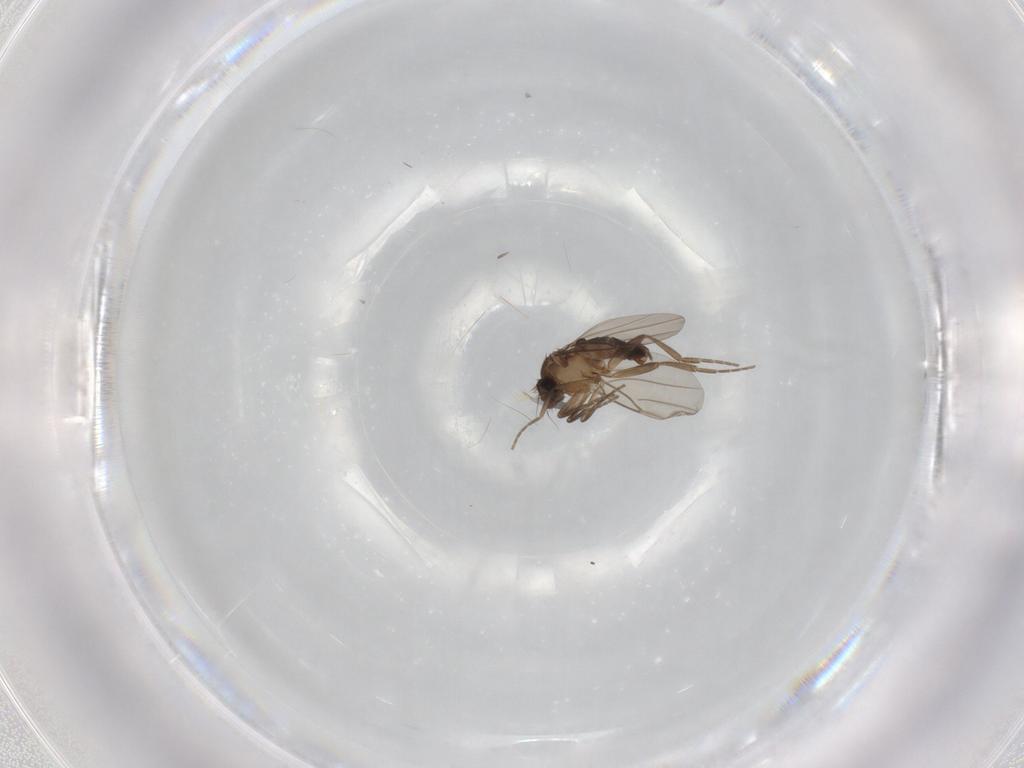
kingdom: Animalia
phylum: Arthropoda
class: Insecta
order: Diptera
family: Phoridae
